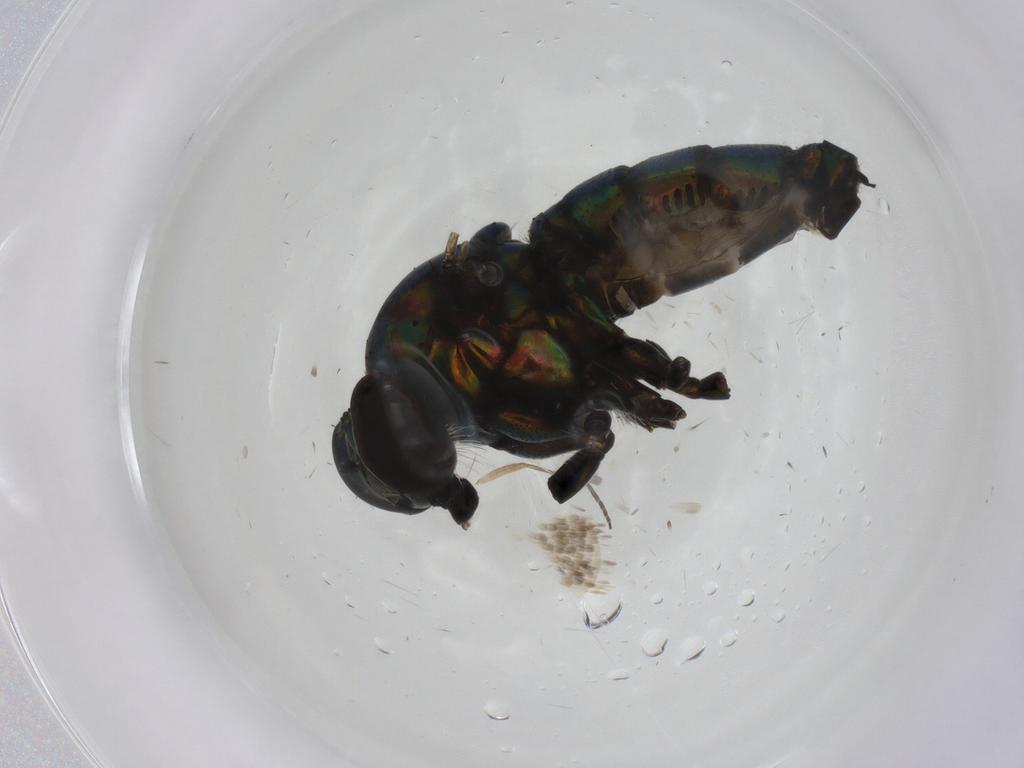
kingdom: Animalia
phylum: Arthropoda
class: Insecta
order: Diptera
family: Dolichopodidae
